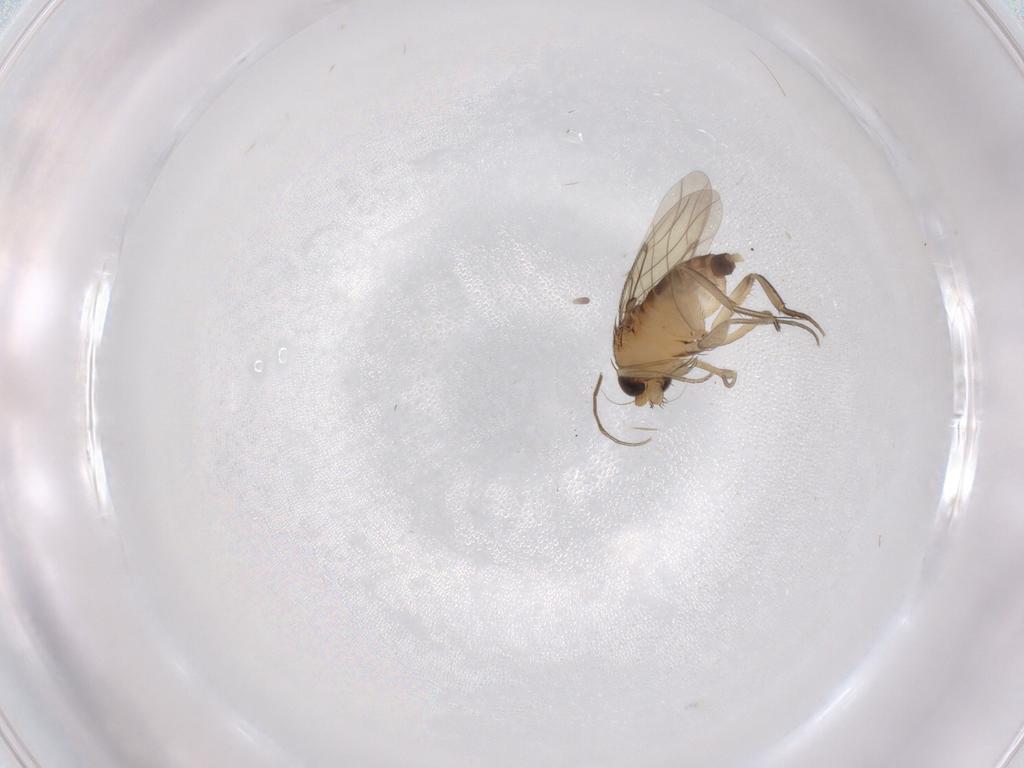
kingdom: Animalia
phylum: Arthropoda
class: Insecta
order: Diptera
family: Phoridae
